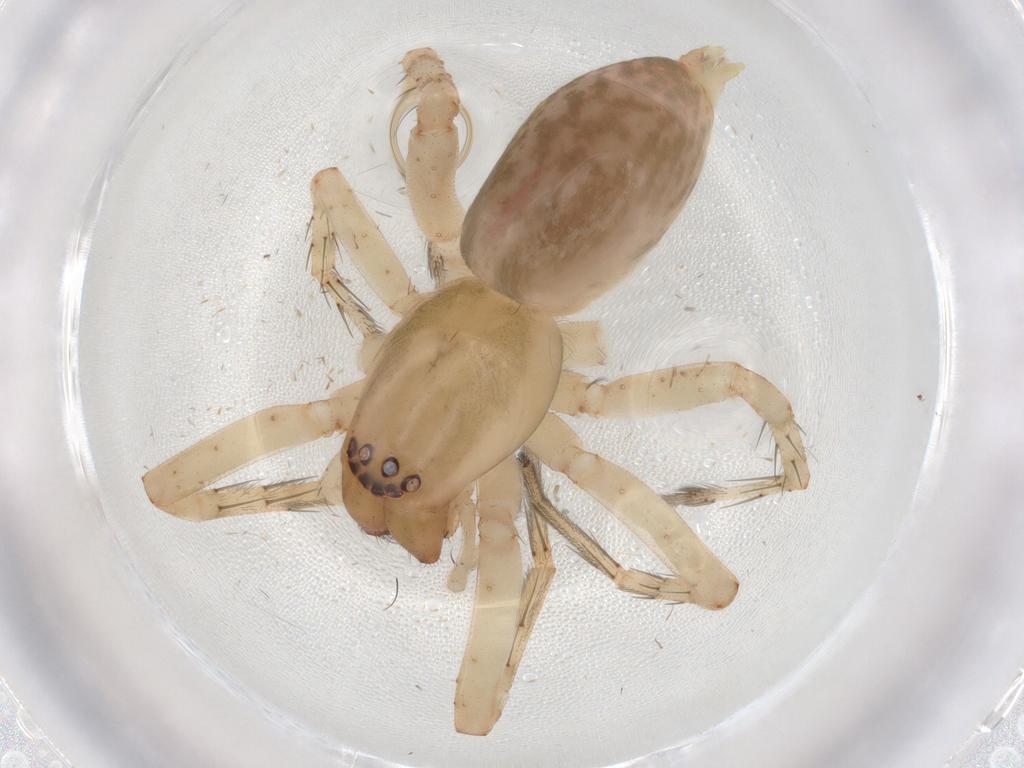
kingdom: Animalia
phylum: Arthropoda
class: Arachnida
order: Araneae
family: Anyphaenidae
